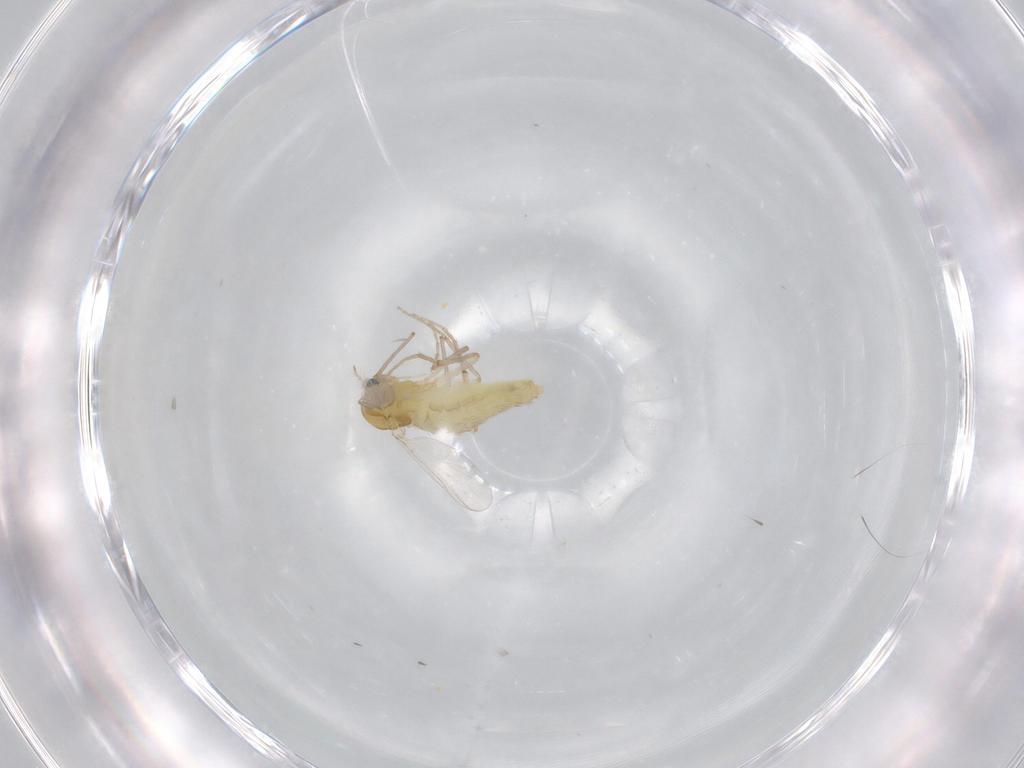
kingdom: Animalia
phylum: Arthropoda
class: Insecta
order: Diptera
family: Chironomidae
